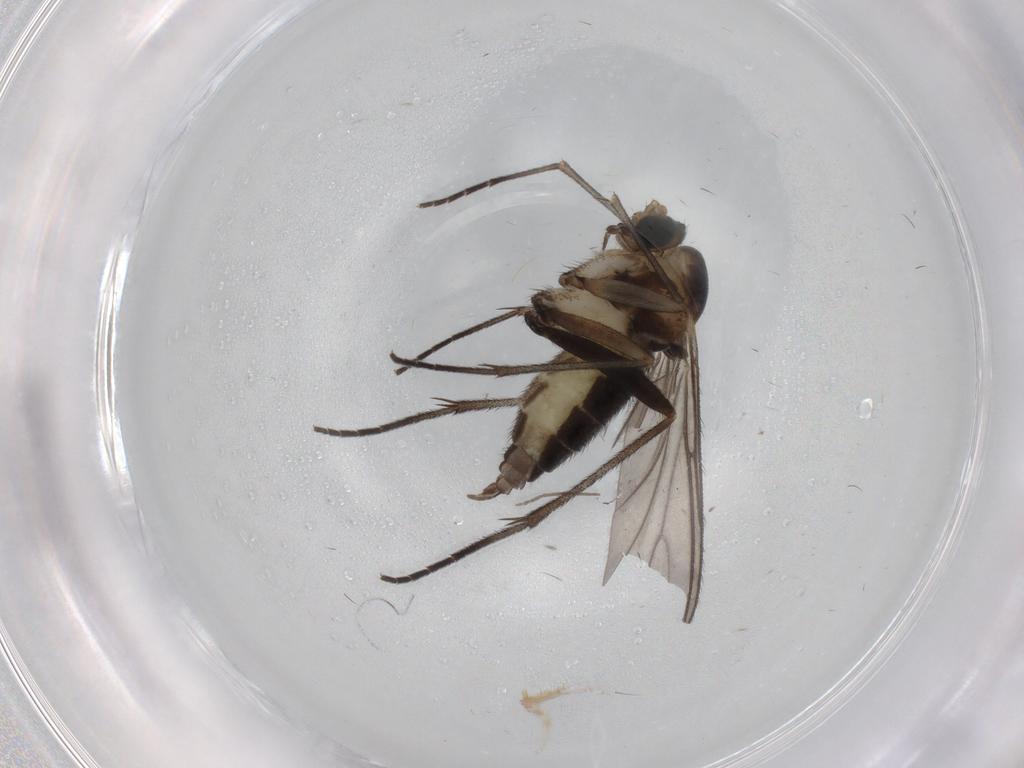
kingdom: Animalia
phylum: Arthropoda
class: Insecta
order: Diptera
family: Sciaridae
